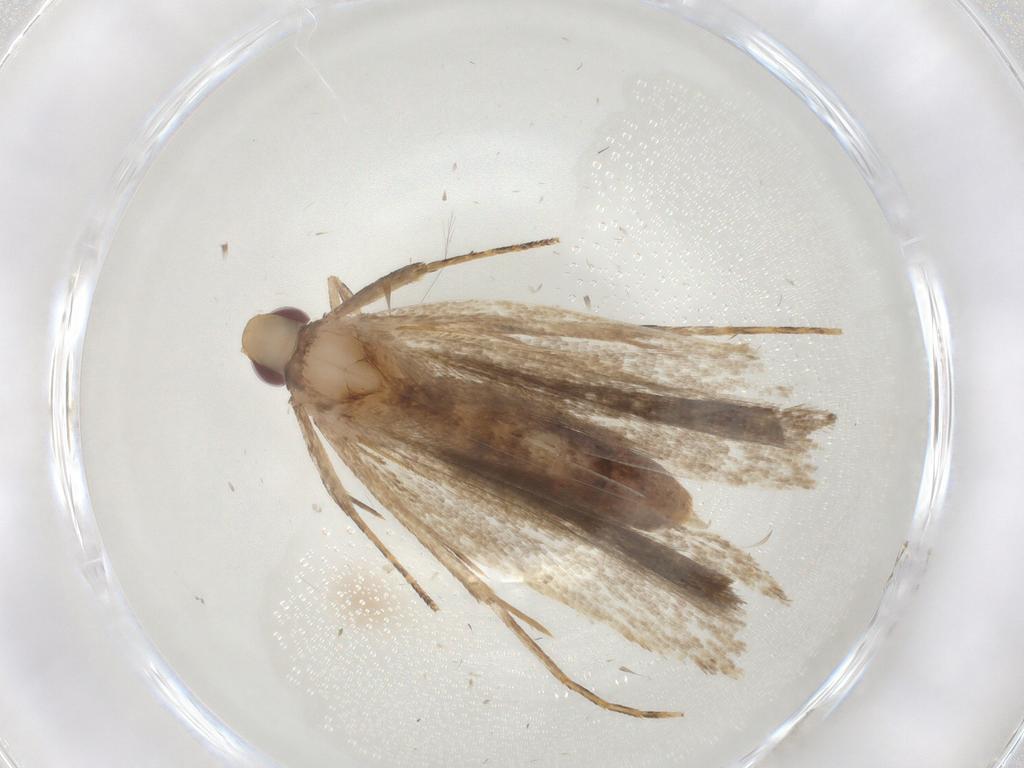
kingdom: Animalia
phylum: Arthropoda
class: Insecta
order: Lepidoptera
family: Gelechiidae
